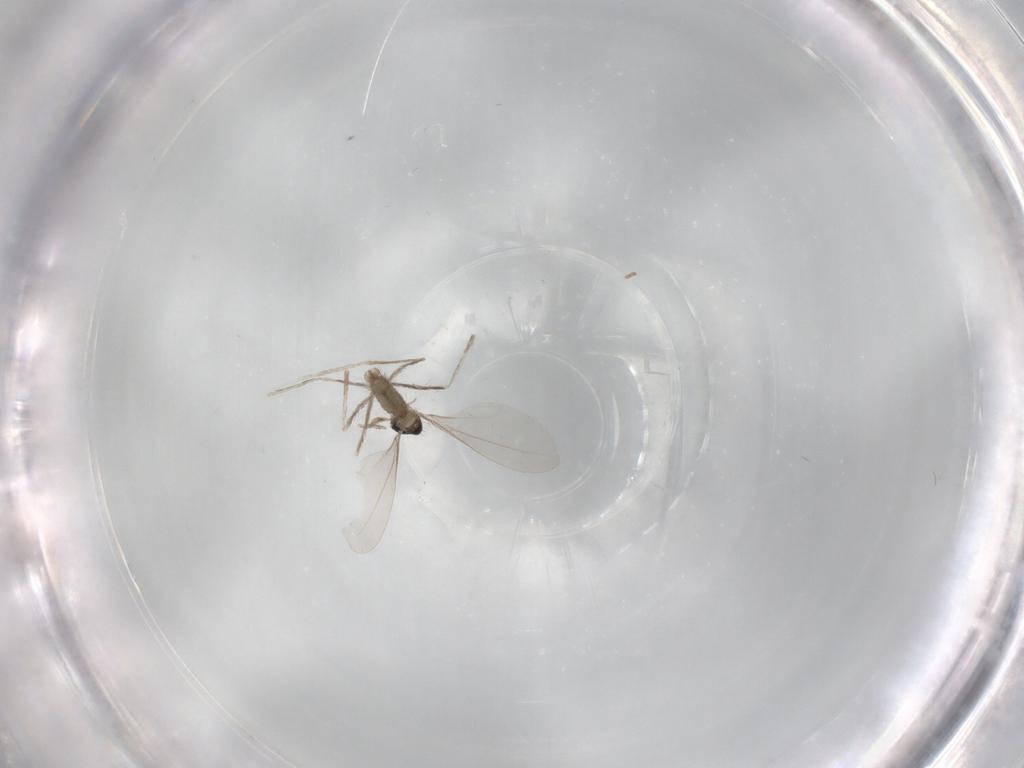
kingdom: Animalia
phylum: Arthropoda
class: Insecta
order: Diptera
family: Cecidomyiidae
